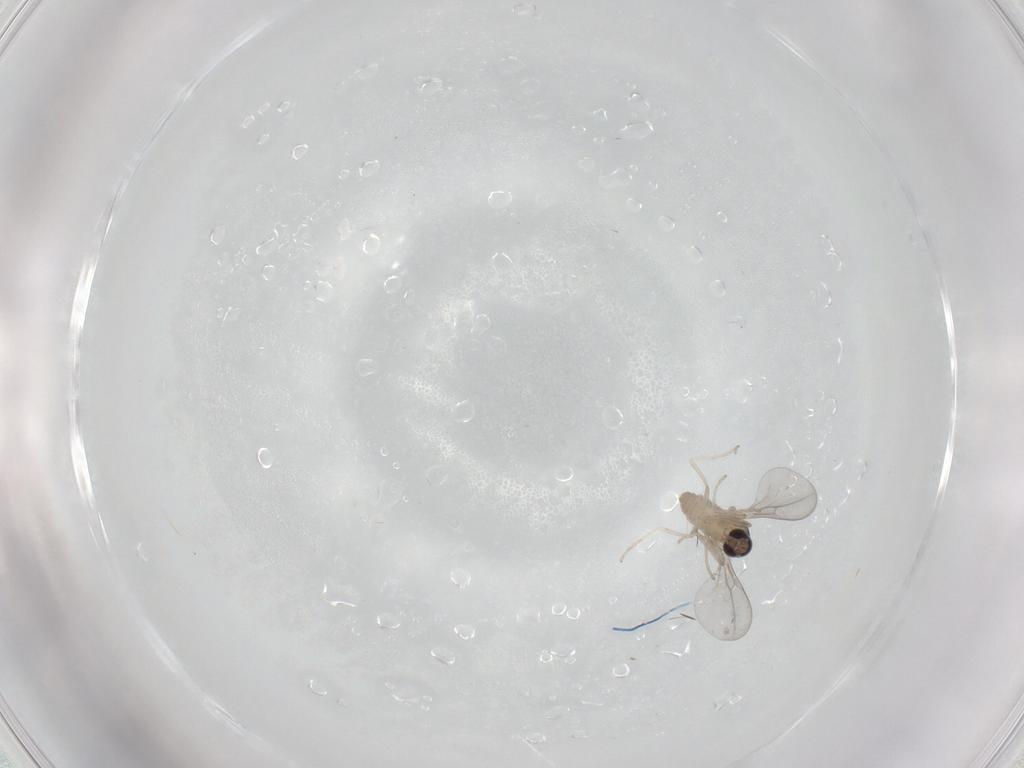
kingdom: Animalia
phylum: Arthropoda
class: Insecta
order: Diptera
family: Cecidomyiidae
